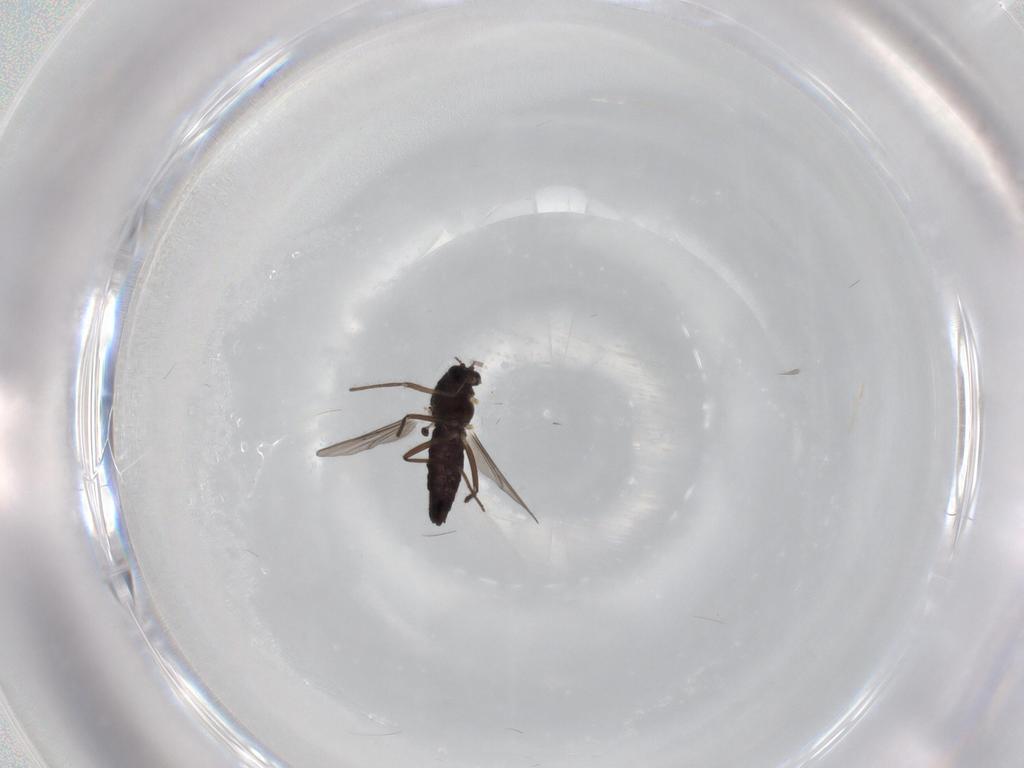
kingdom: Animalia
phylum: Arthropoda
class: Insecta
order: Diptera
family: Chironomidae
